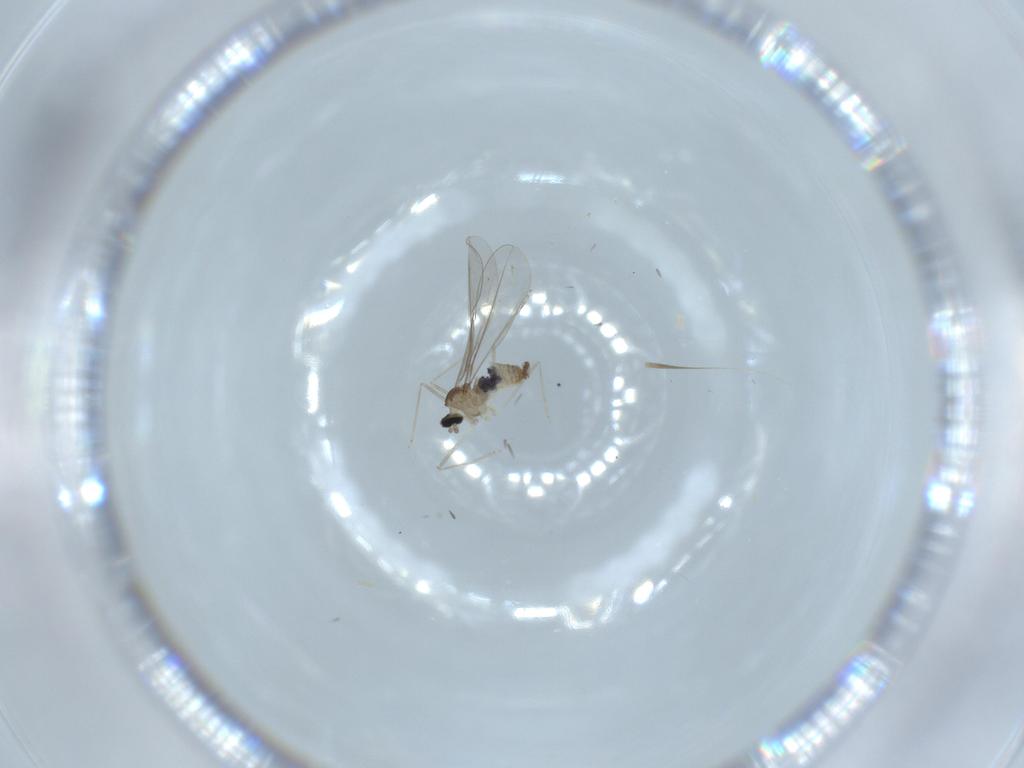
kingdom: Animalia
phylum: Arthropoda
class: Insecta
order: Diptera
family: Cecidomyiidae
